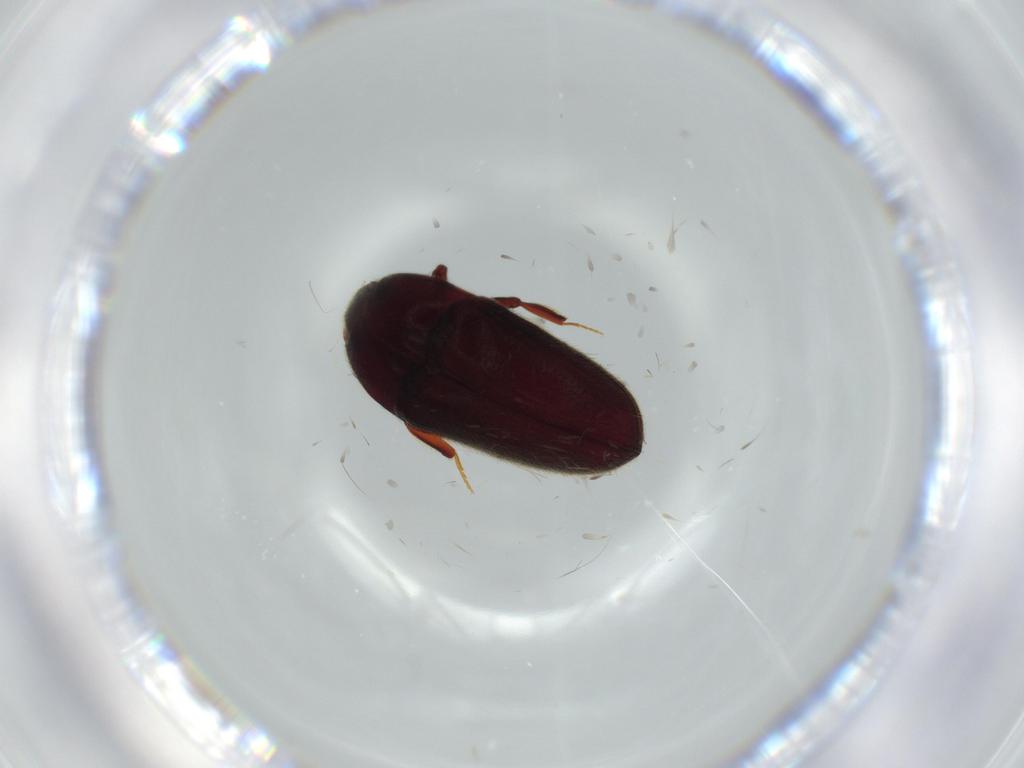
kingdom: Animalia
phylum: Arthropoda
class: Insecta
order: Coleoptera
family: Throscidae
